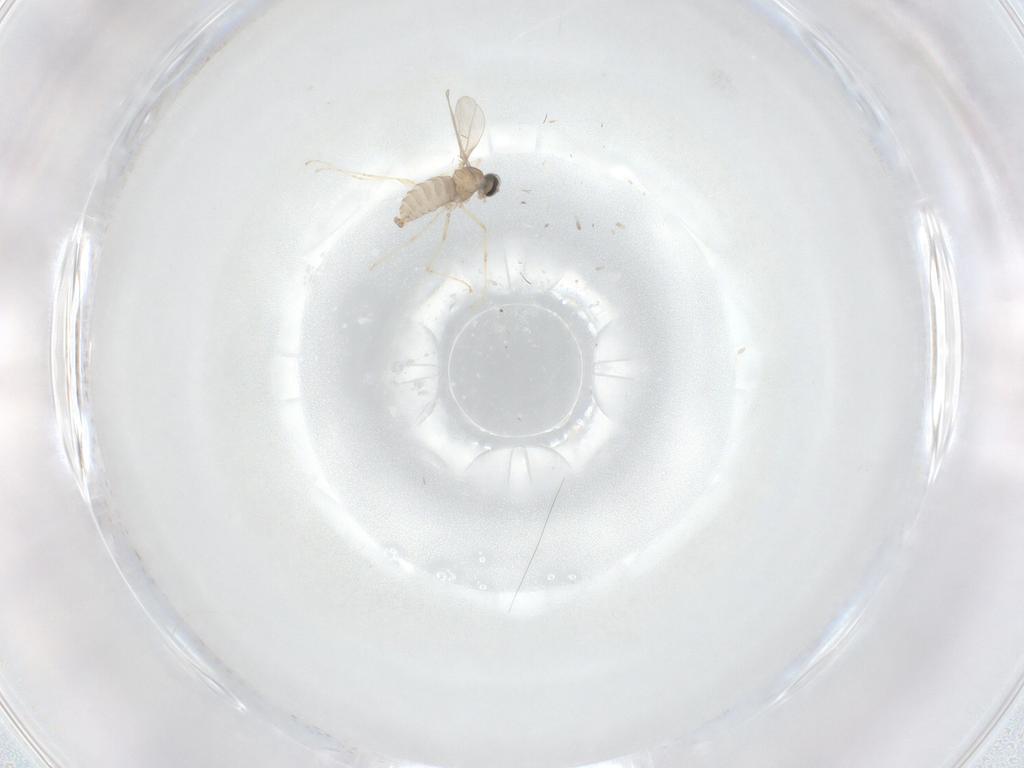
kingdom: Animalia
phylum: Arthropoda
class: Insecta
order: Diptera
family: Cecidomyiidae
